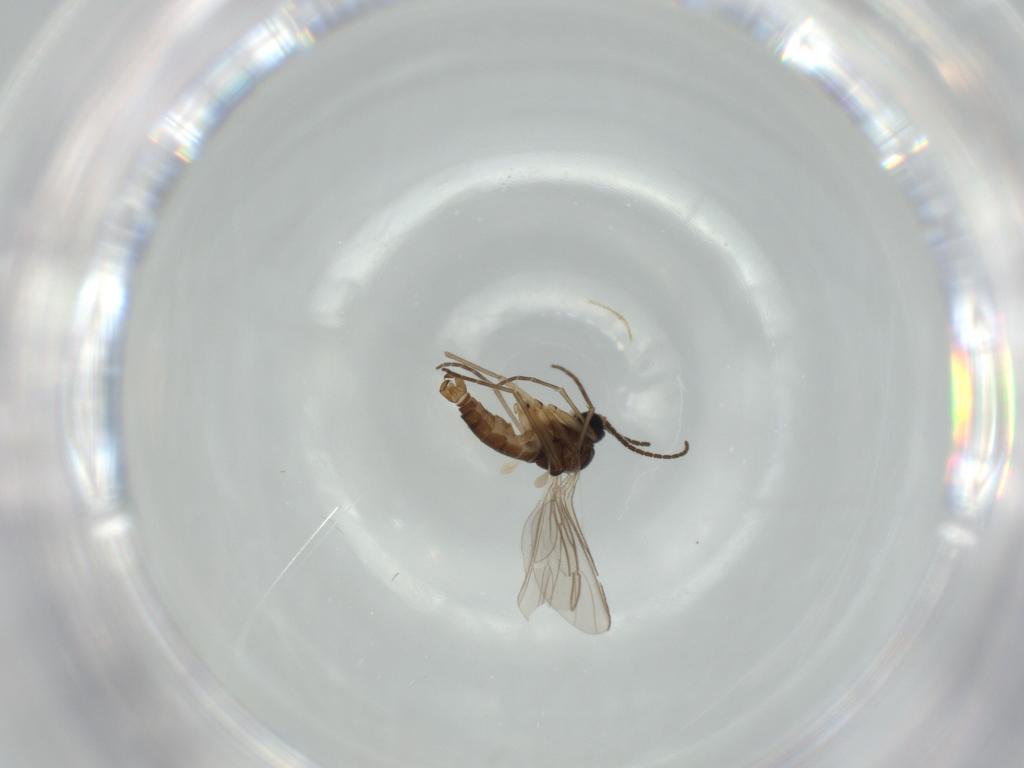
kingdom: Animalia
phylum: Arthropoda
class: Insecta
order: Diptera
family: Sciaridae
